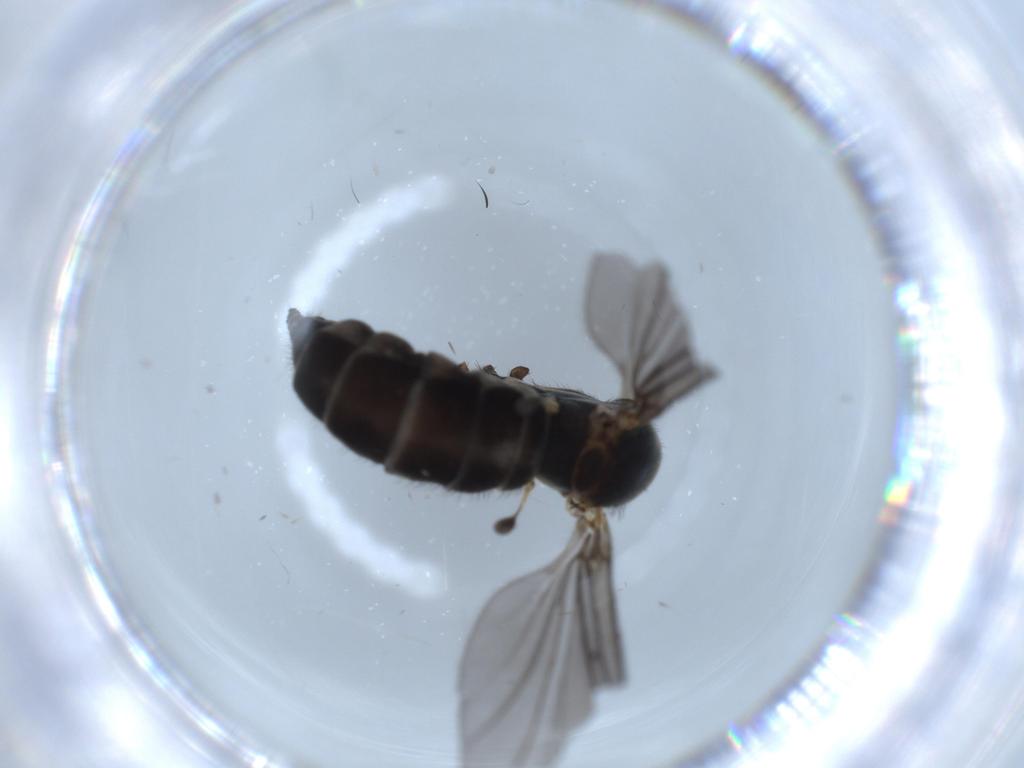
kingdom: Animalia
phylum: Arthropoda
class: Insecta
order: Diptera
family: Sciaridae
